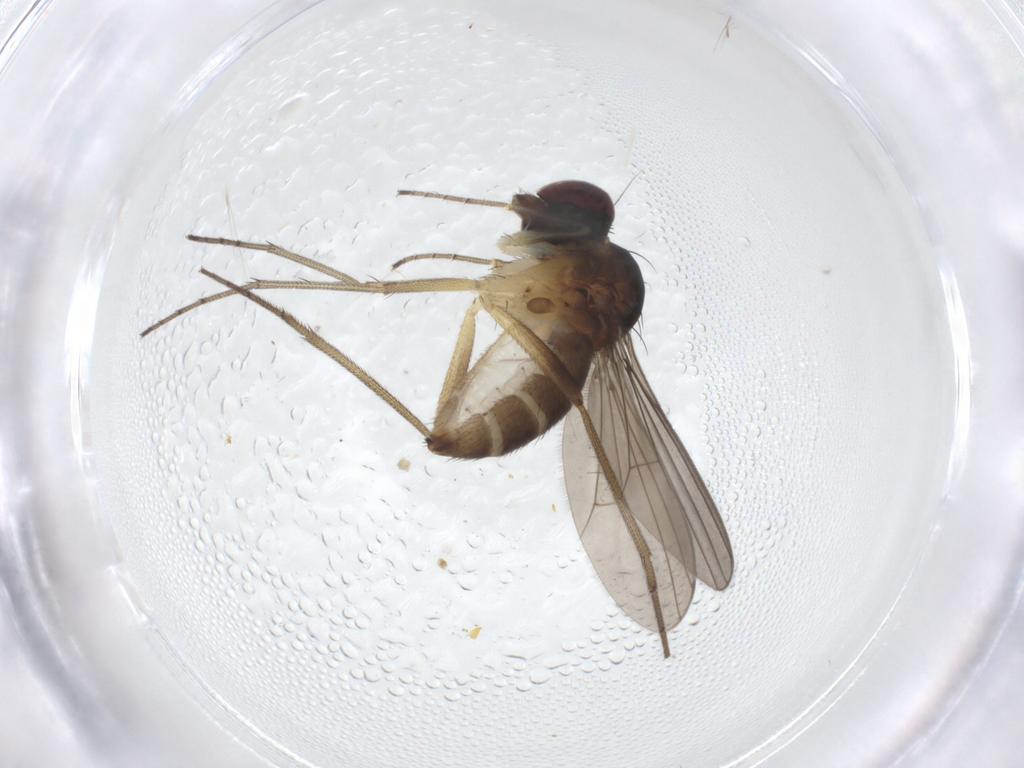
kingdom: Animalia
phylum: Arthropoda
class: Insecta
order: Diptera
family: Dolichopodidae
